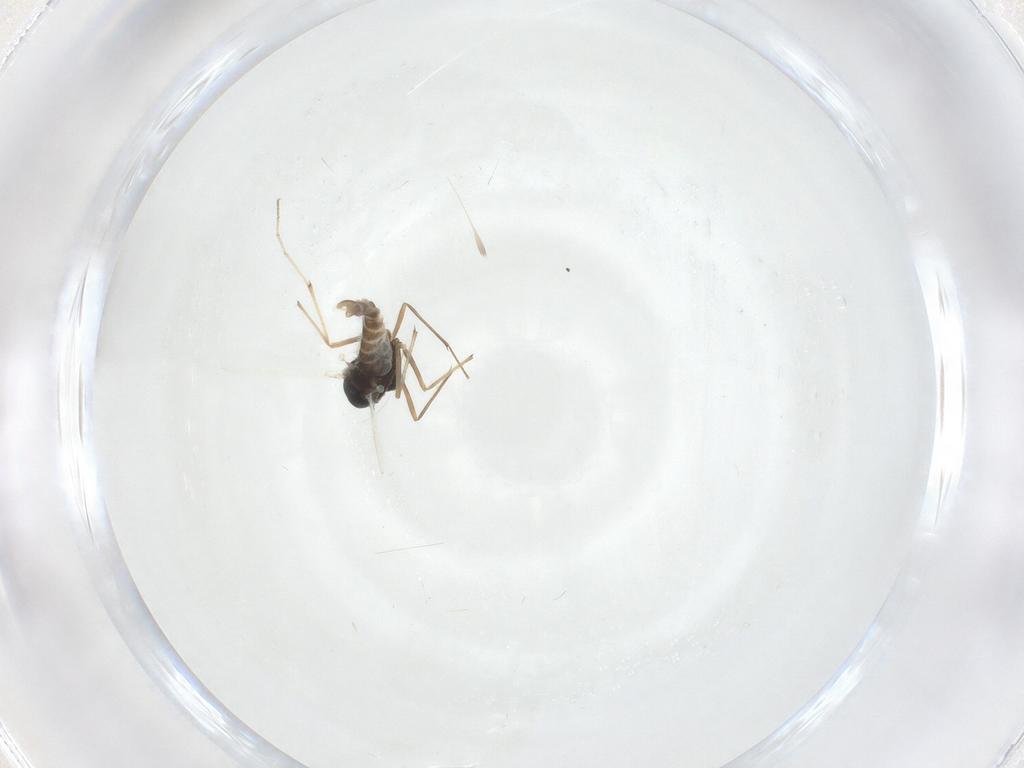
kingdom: Animalia
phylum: Arthropoda
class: Insecta
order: Diptera
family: Chironomidae
